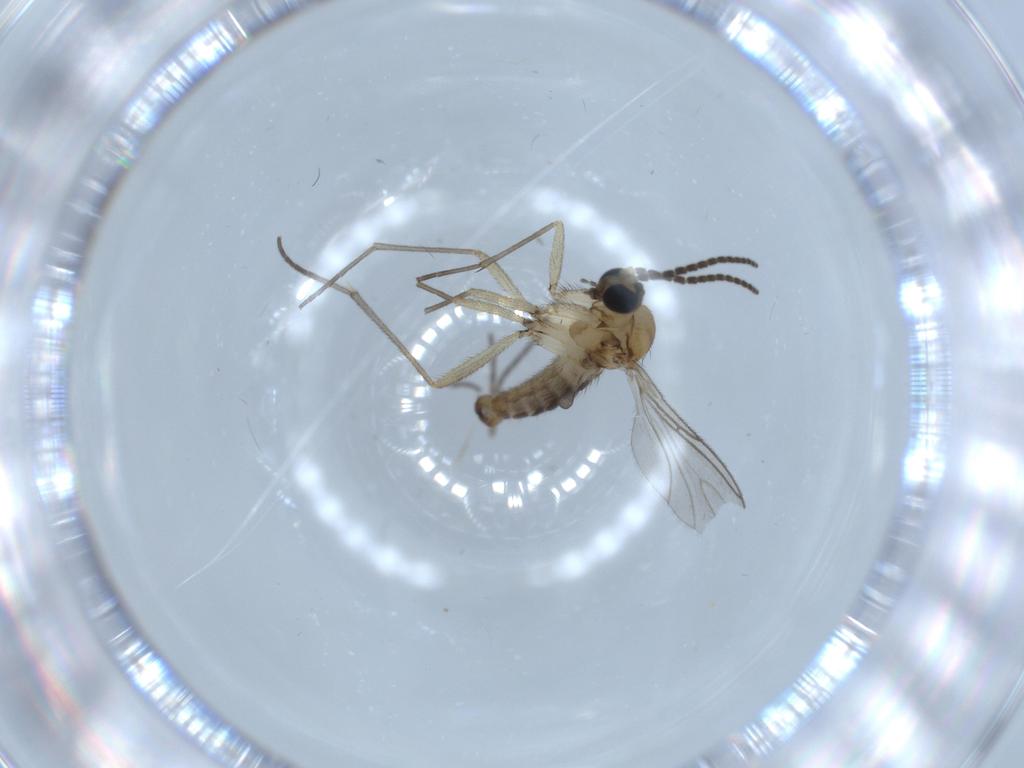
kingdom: Animalia
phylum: Arthropoda
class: Insecta
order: Diptera
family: Sciaridae
